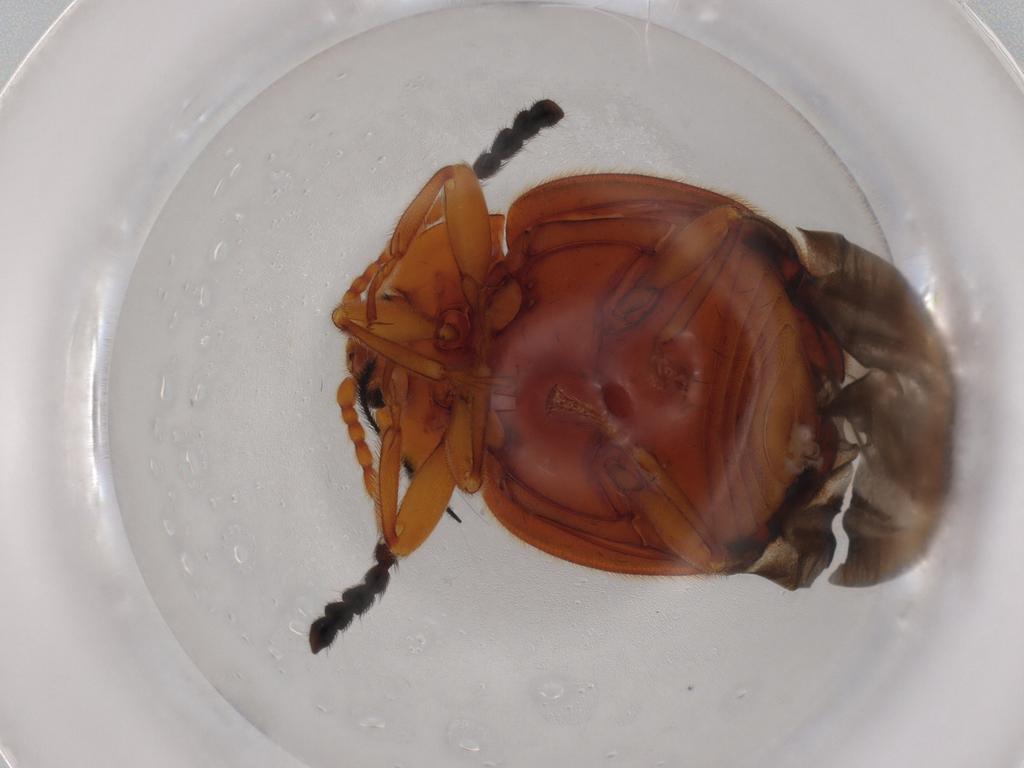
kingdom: Animalia
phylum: Arthropoda
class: Insecta
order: Coleoptera
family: Endomychidae
